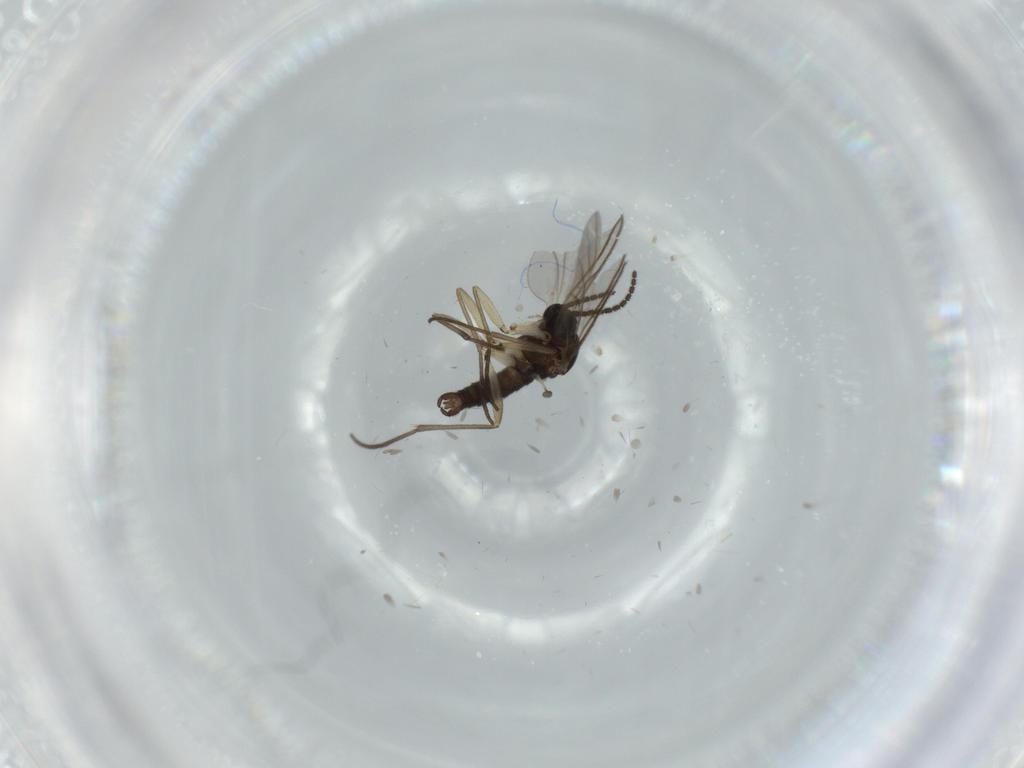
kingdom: Animalia
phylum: Arthropoda
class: Insecta
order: Diptera
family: Sciaridae
